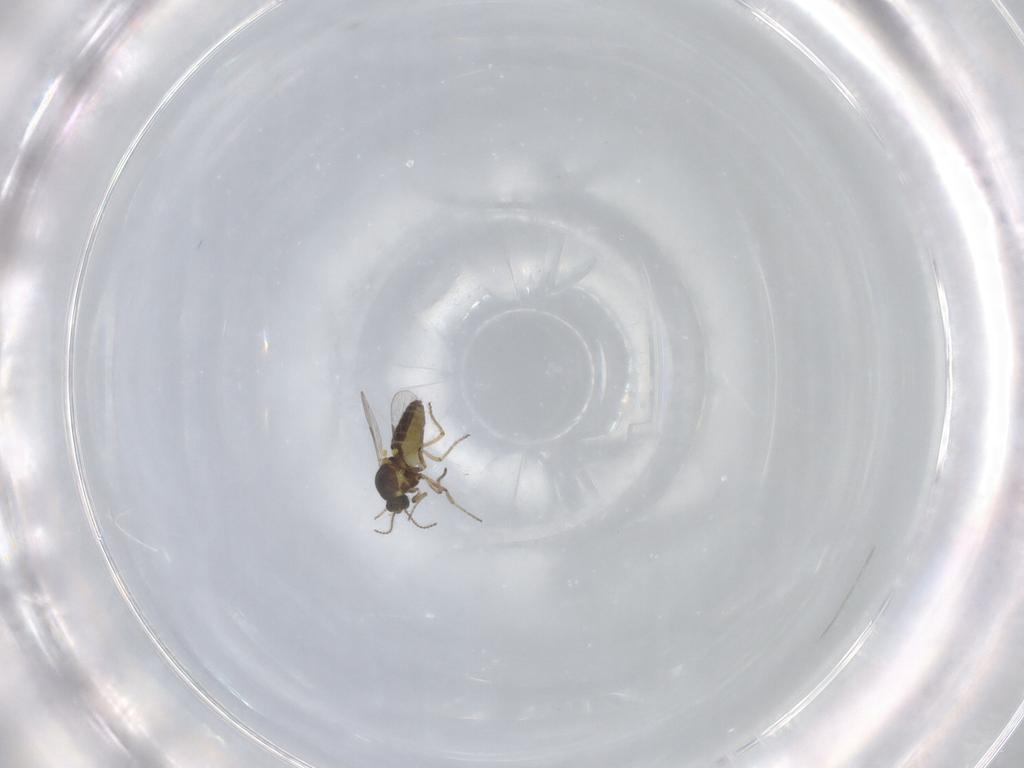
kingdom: Animalia
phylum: Arthropoda
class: Insecta
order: Diptera
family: Ceratopogonidae
